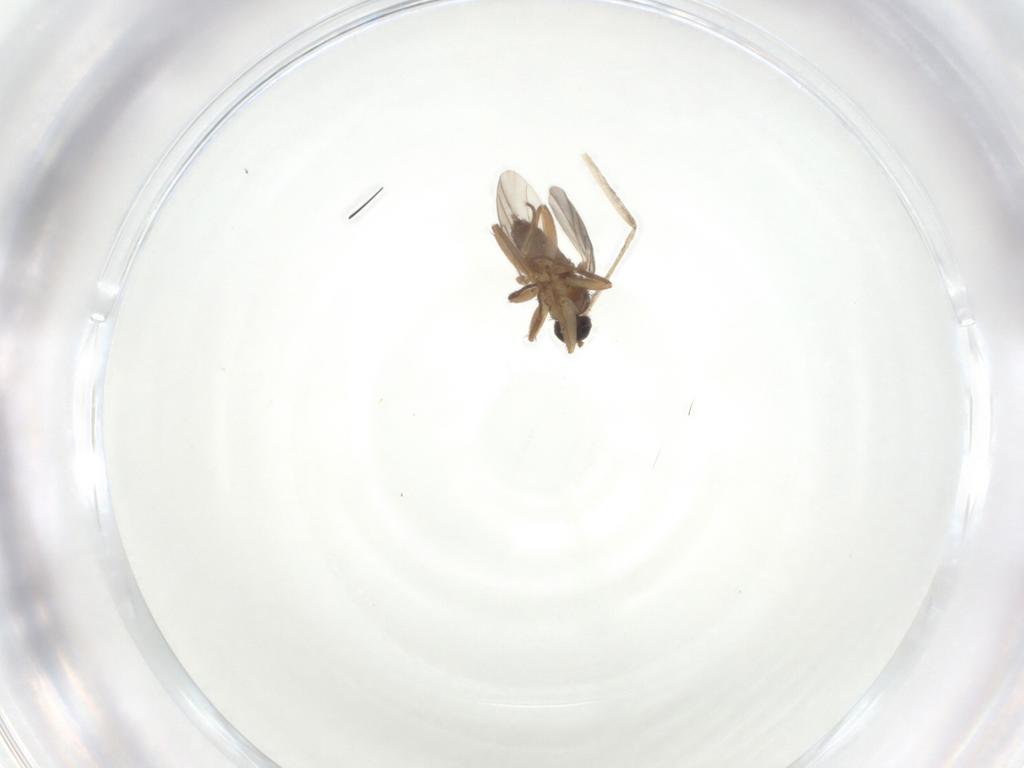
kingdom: Animalia
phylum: Arthropoda
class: Insecta
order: Diptera
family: Hybotidae
